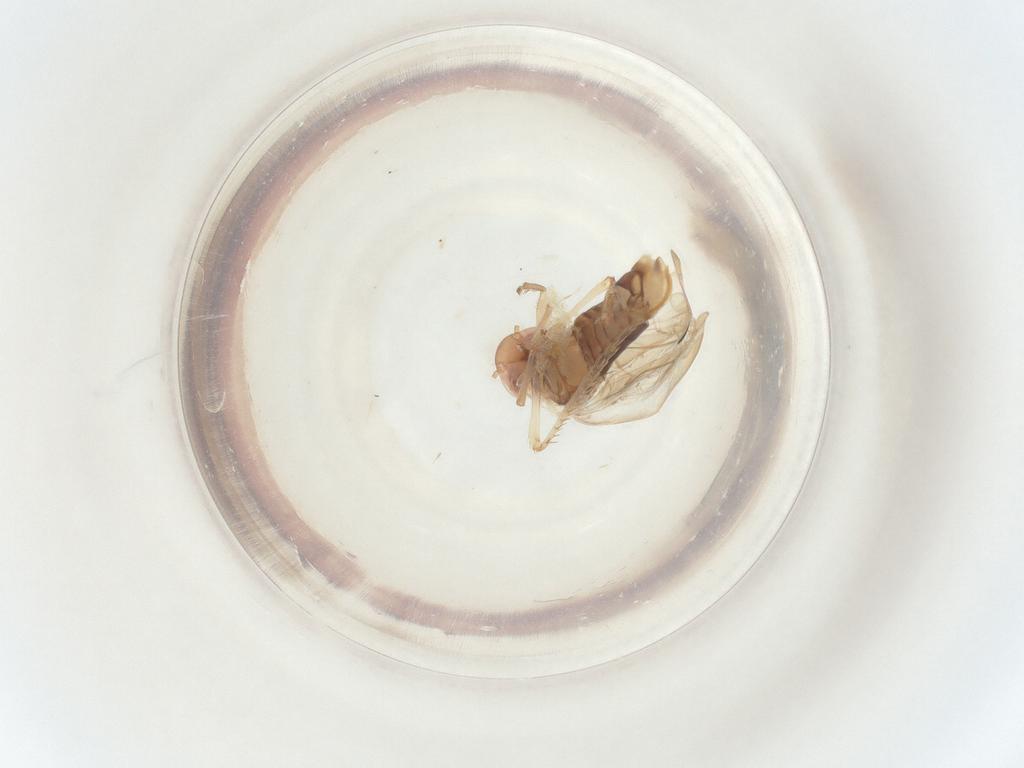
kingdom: Animalia
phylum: Arthropoda
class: Insecta
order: Hemiptera
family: Cicadellidae
